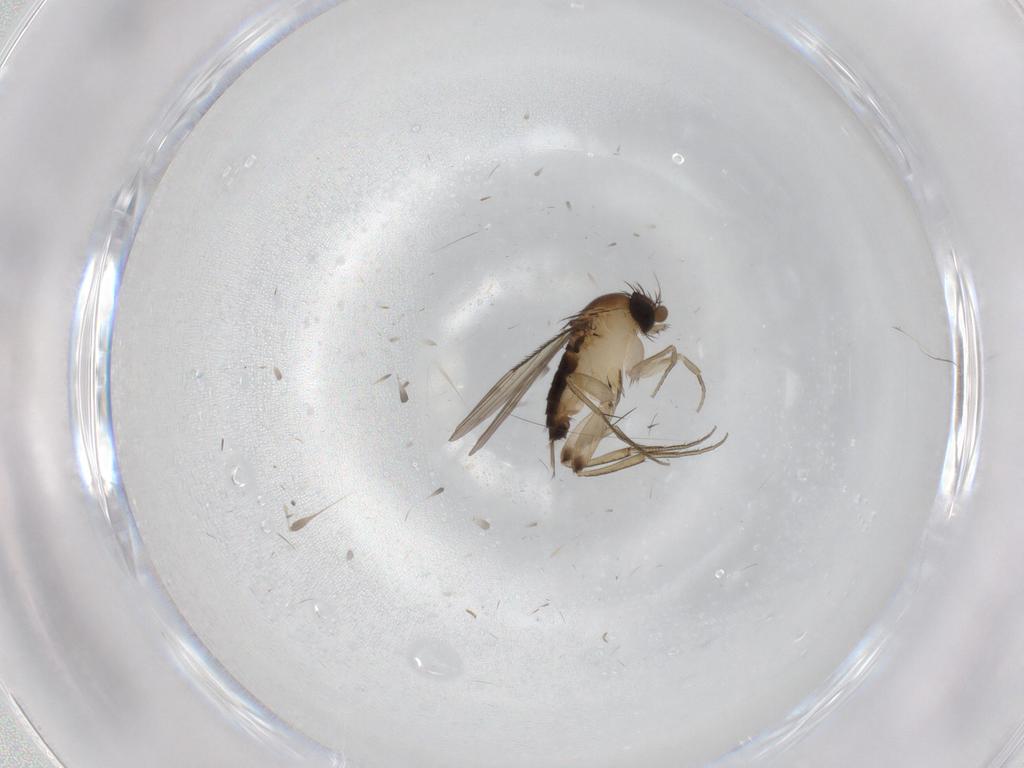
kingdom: Animalia
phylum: Arthropoda
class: Insecta
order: Diptera
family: Phoridae
